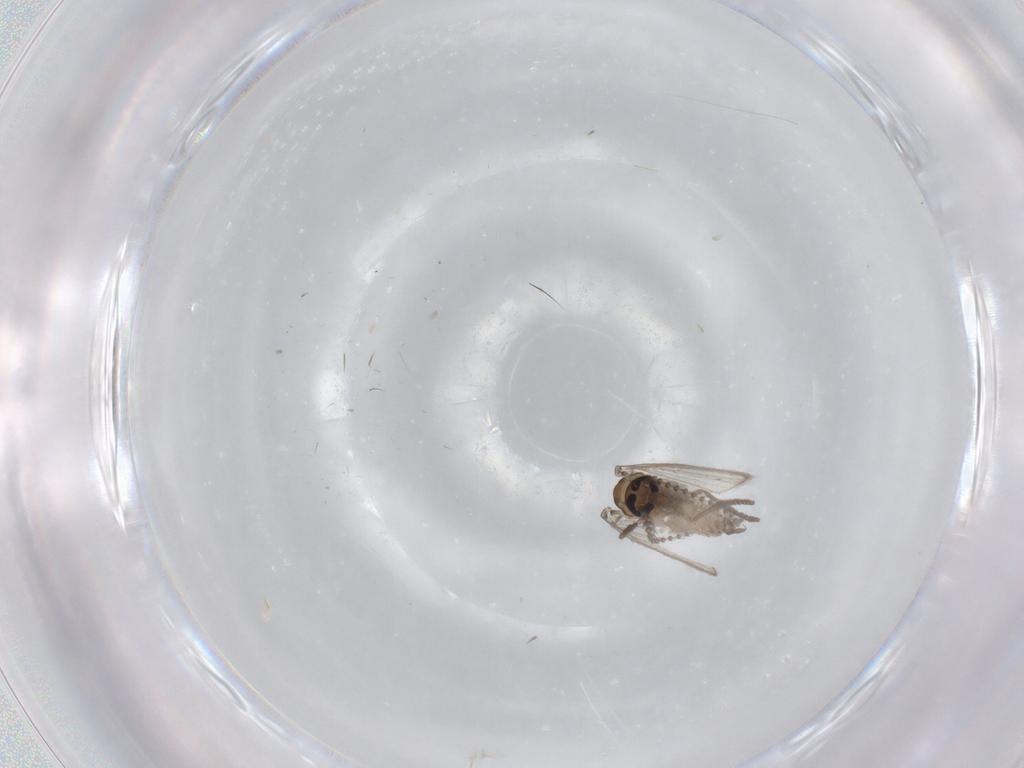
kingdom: Animalia
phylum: Arthropoda
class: Insecta
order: Diptera
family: Psychodidae
